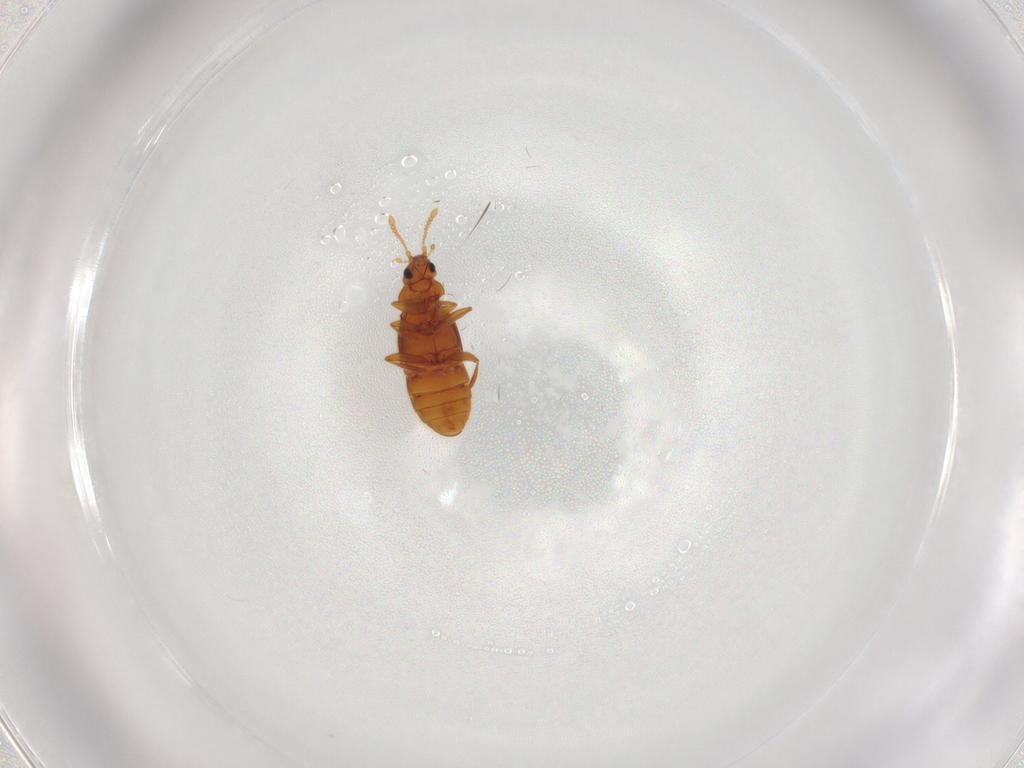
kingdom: Animalia
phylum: Arthropoda
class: Insecta
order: Coleoptera
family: Staphylinidae
